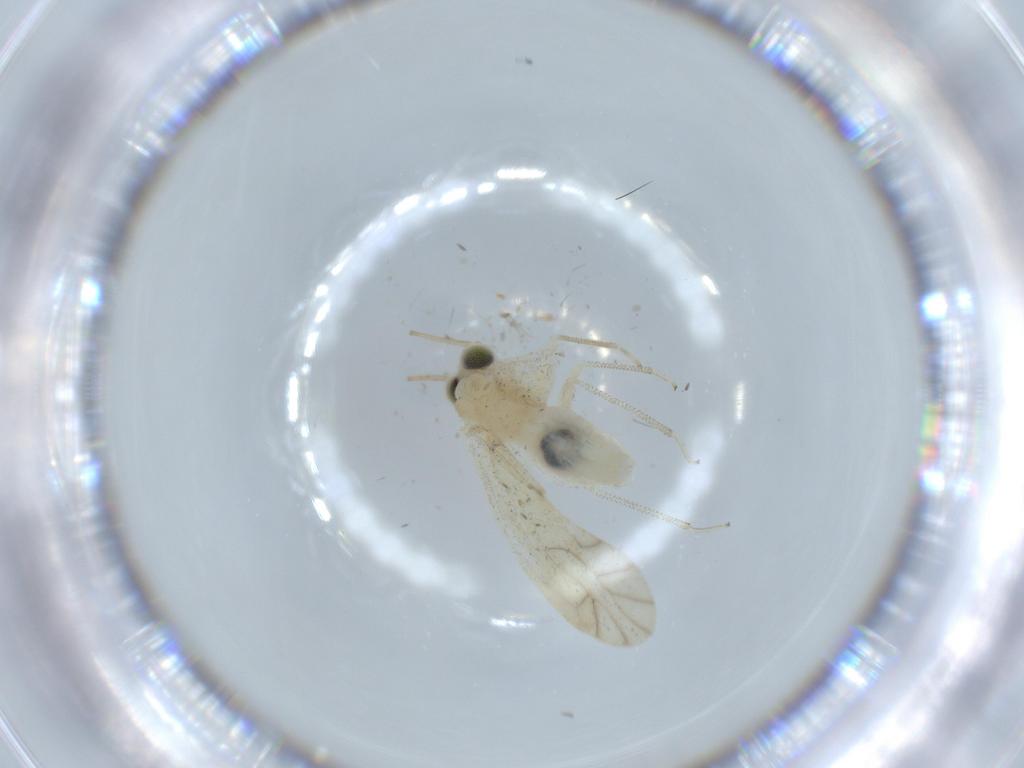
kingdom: Animalia
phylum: Arthropoda
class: Insecta
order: Psocodea
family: Caeciliusidae
